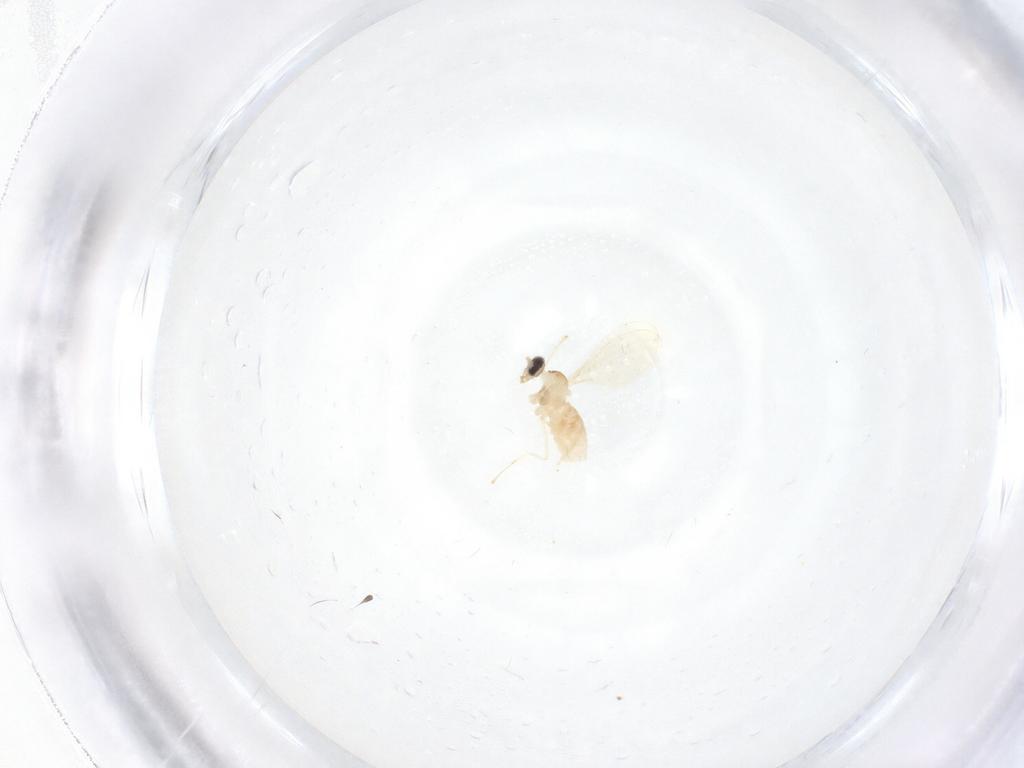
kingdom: Animalia
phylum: Arthropoda
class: Insecta
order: Diptera
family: Cecidomyiidae
